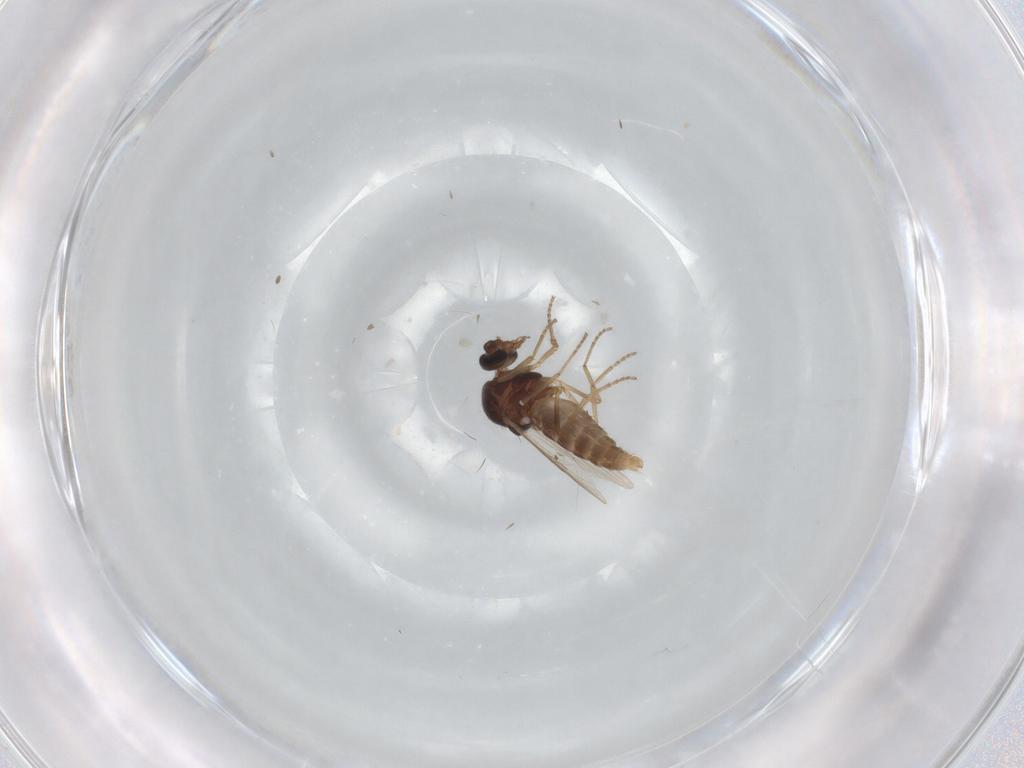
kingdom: Animalia
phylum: Arthropoda
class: Insecta
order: Diptera
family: Ceratopogonidae
